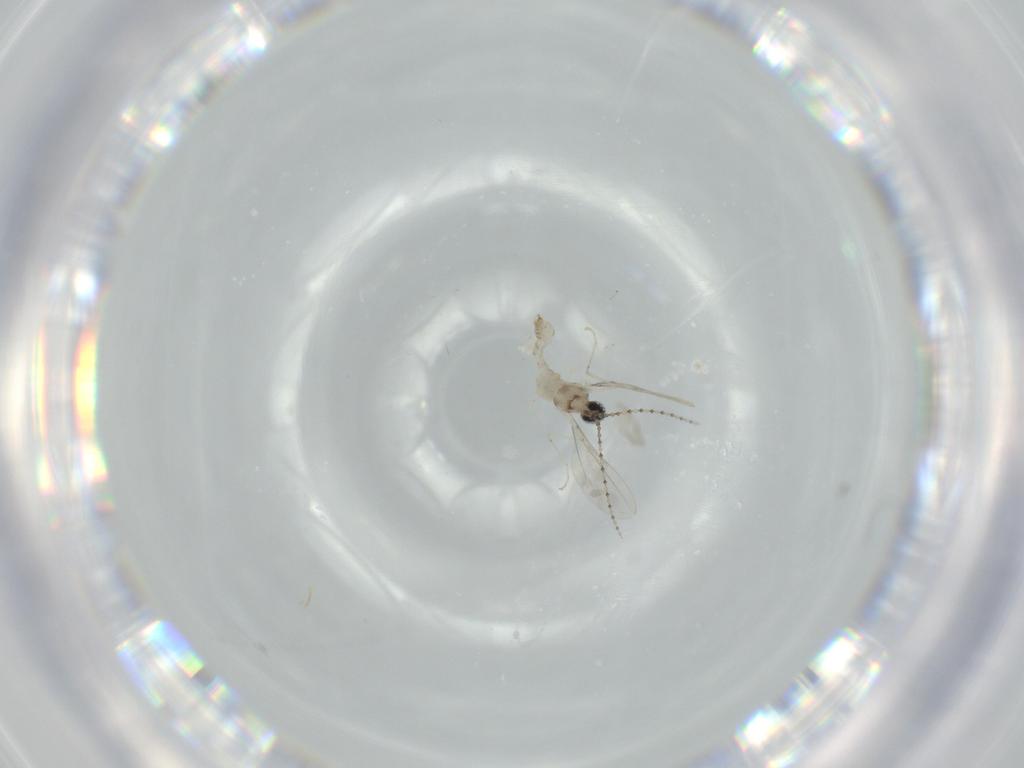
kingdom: Animalia
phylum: Arthropoda
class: Insecta
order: Diptera
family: Cecidomyiidae
